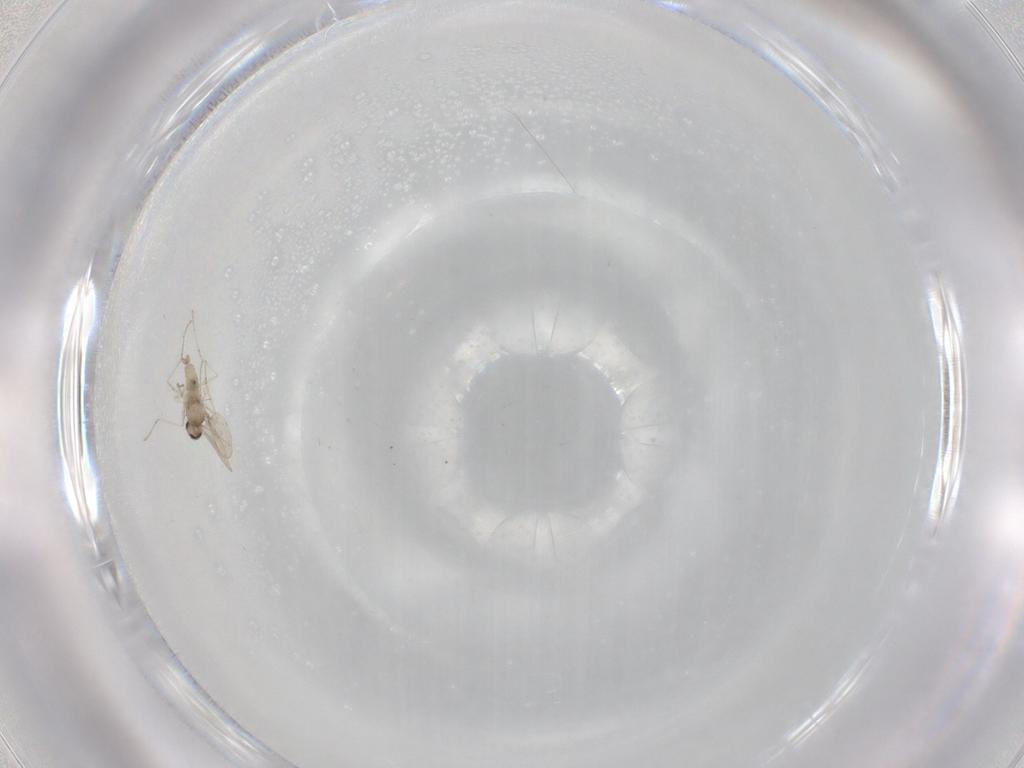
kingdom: Animalia
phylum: Arthropoda
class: Insecta
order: Diptera
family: Cecidomyiidae
